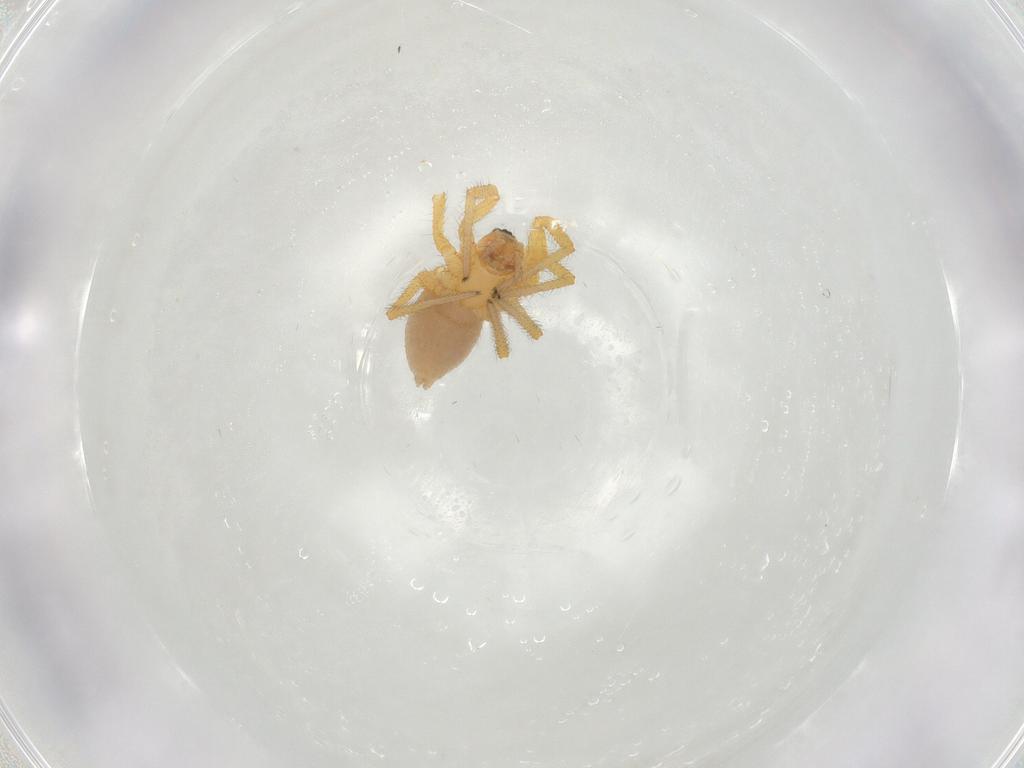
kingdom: Animalia
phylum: Arthropoda
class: Arachnida
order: Araneae
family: Linyphiidae
